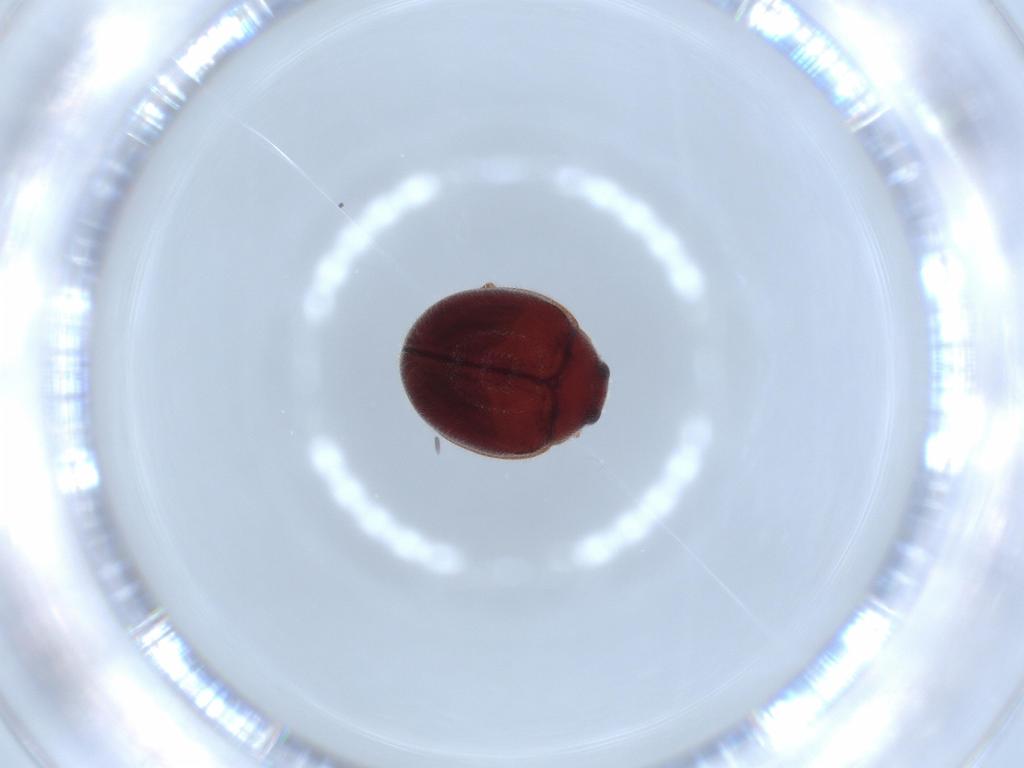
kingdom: Animalia
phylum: Arthropoda
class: Insecta
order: Coleoptera
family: Coccinellidae
